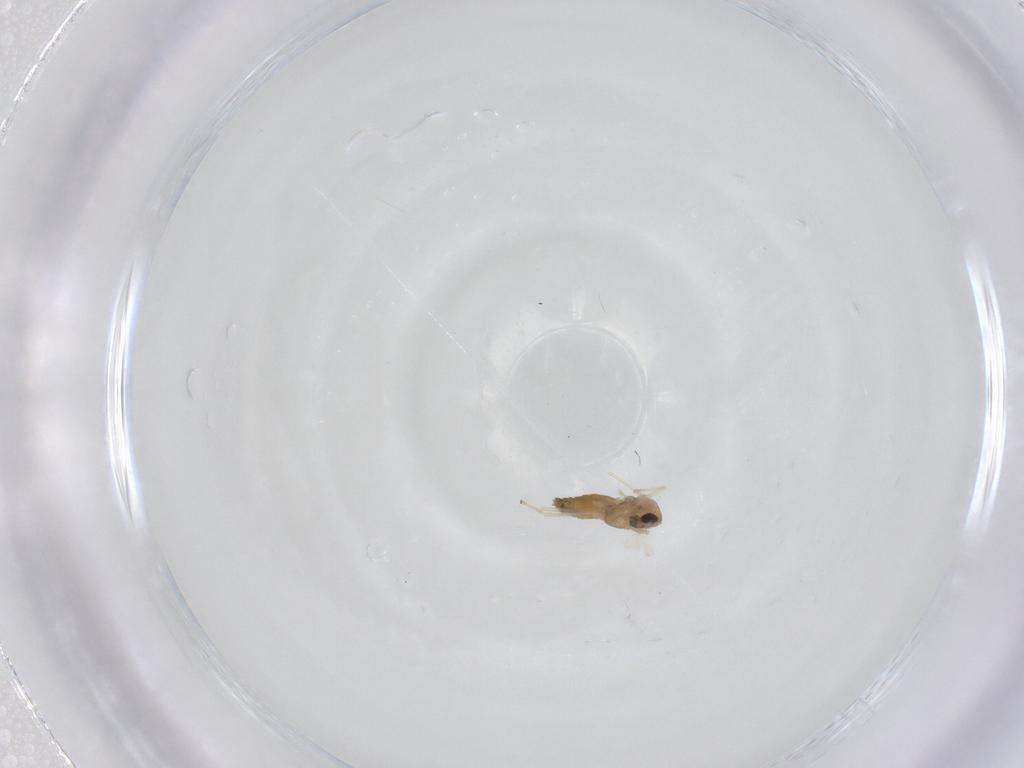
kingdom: Animalia
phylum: Arthropoda
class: Insecta
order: Diptera
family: Chironomidae
